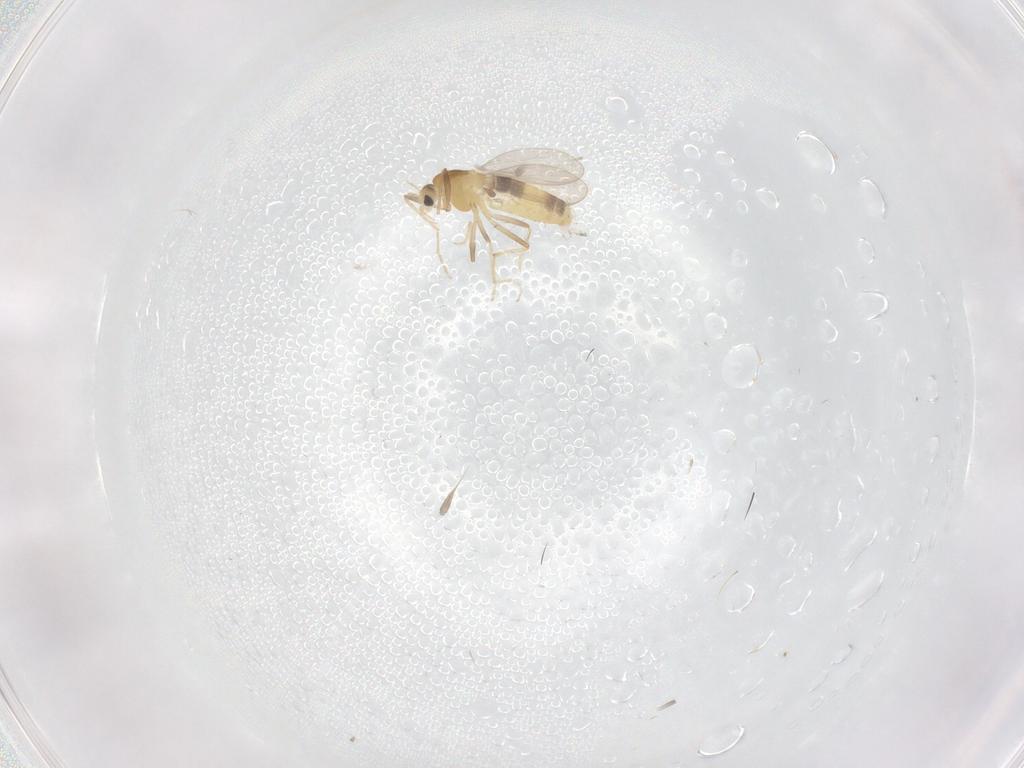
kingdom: Animalia
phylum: Arthropoda
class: Insecta
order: Diptera
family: Chironomidae
